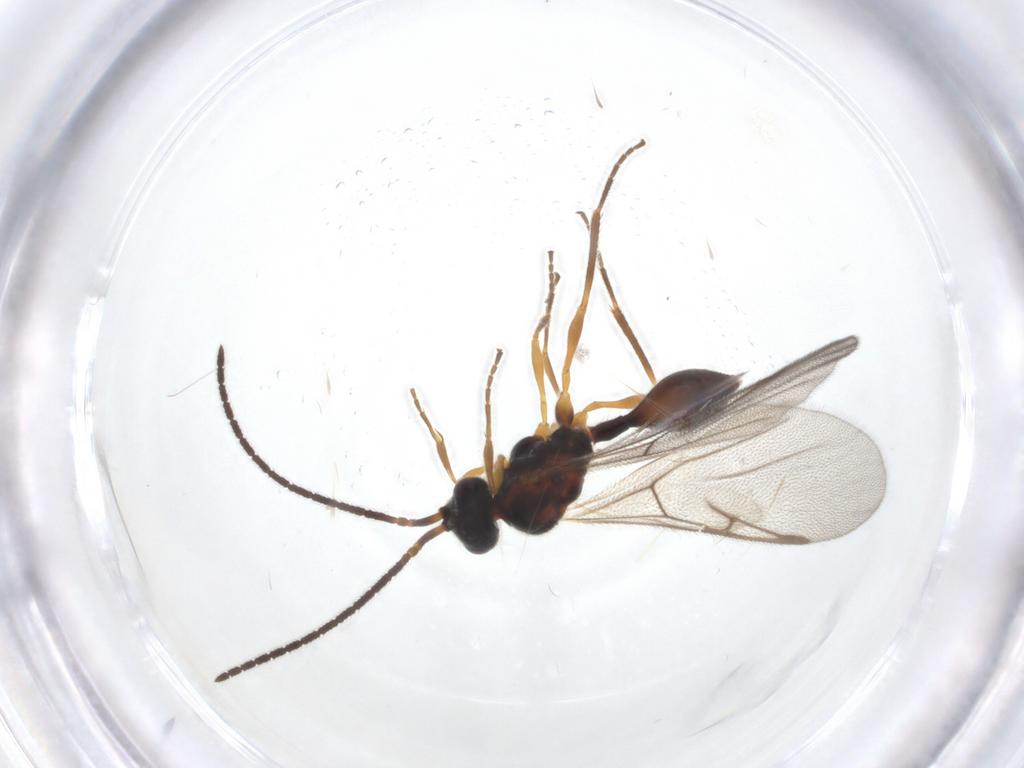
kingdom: Animalia
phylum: Arthropoda
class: Insecta
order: Hymenoptera
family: Diapriidae
